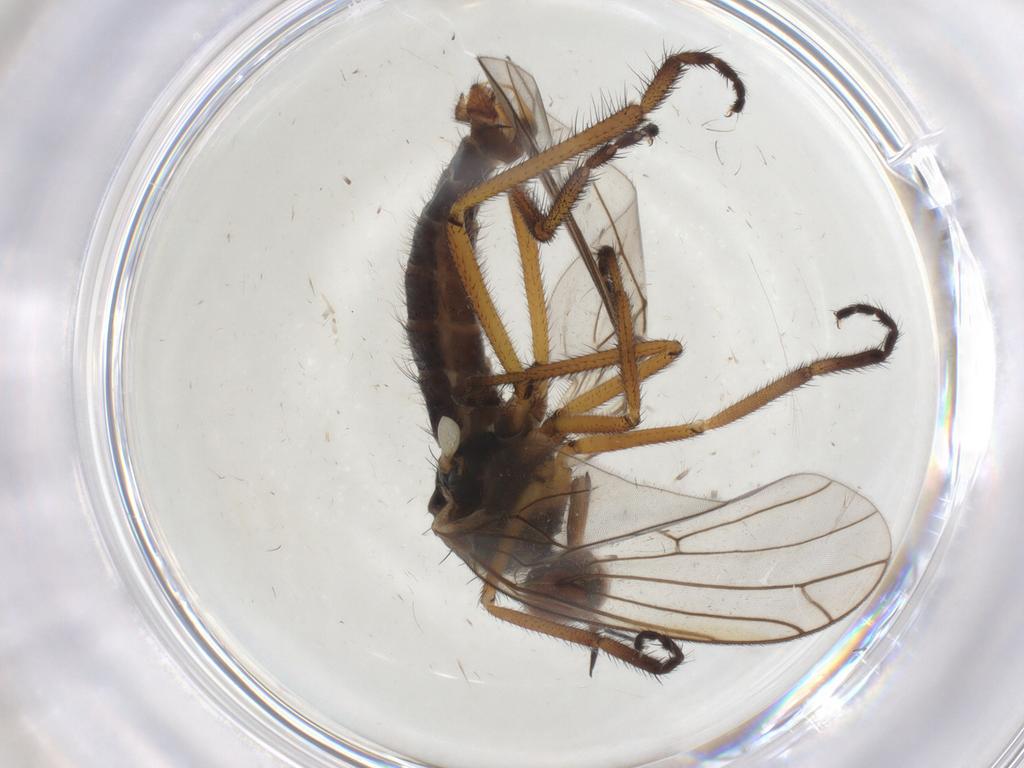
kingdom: Animalia
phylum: Arthropoda
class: Insecta
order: Diptera
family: Empididae
